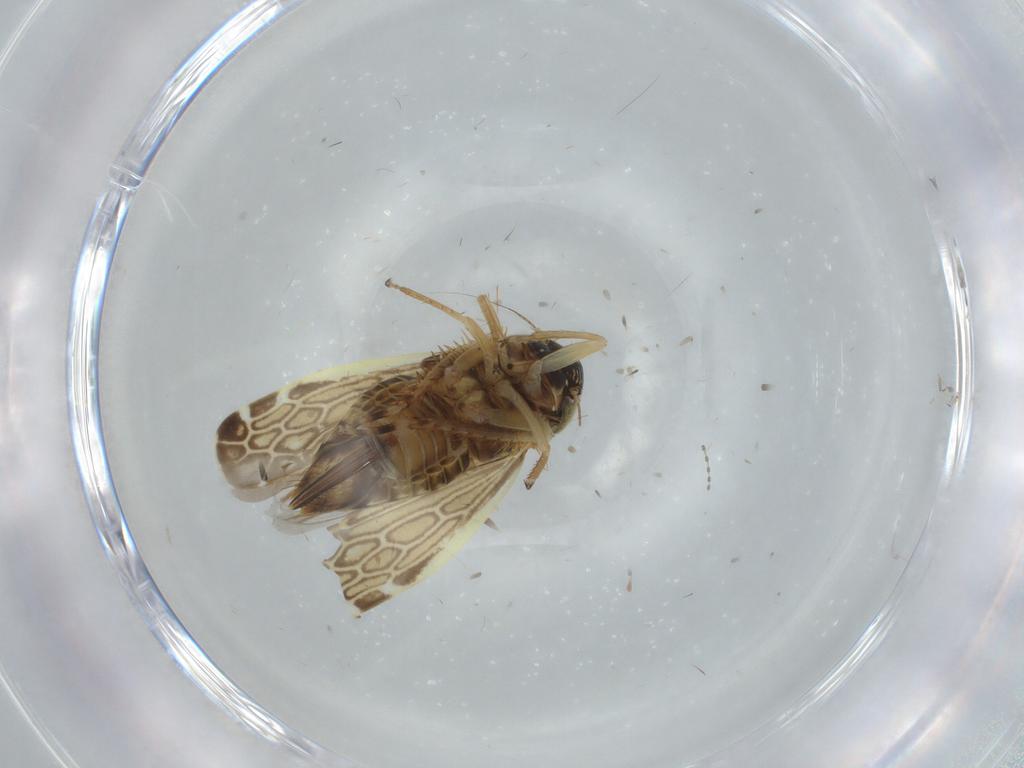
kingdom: Animalia
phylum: Arthropoda
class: Insecta
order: Hemiptera
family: Cicadellidae
